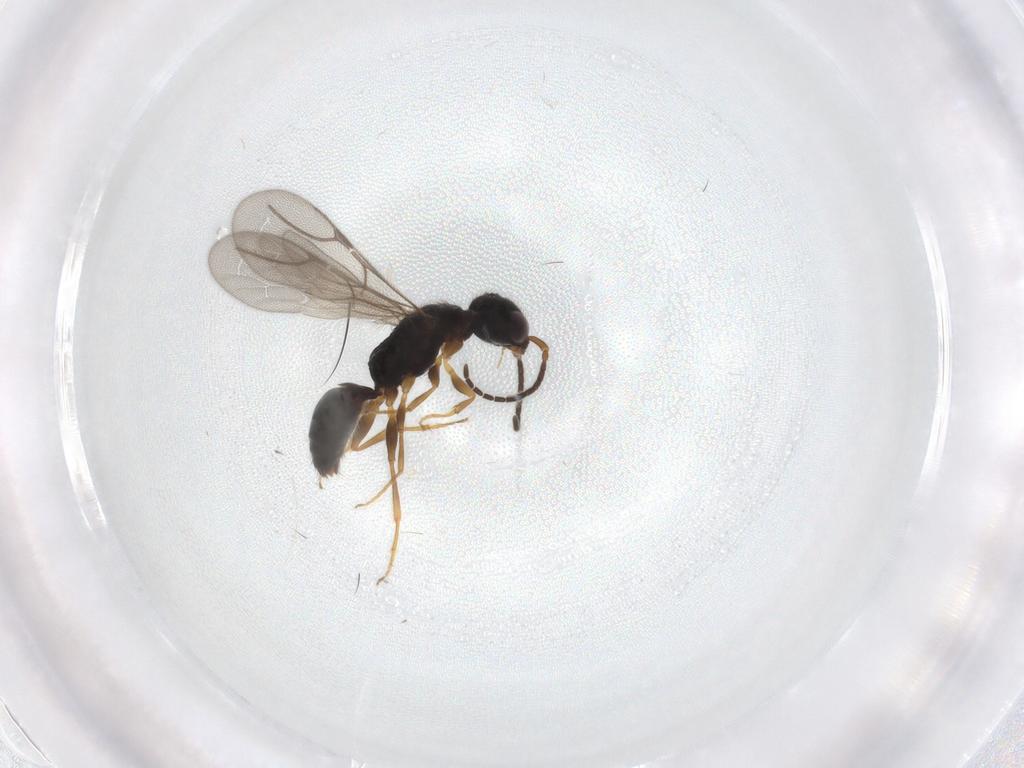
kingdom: Animalia
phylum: Arthropoda
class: Insecta
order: Hymenoptera
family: Bethylidae
